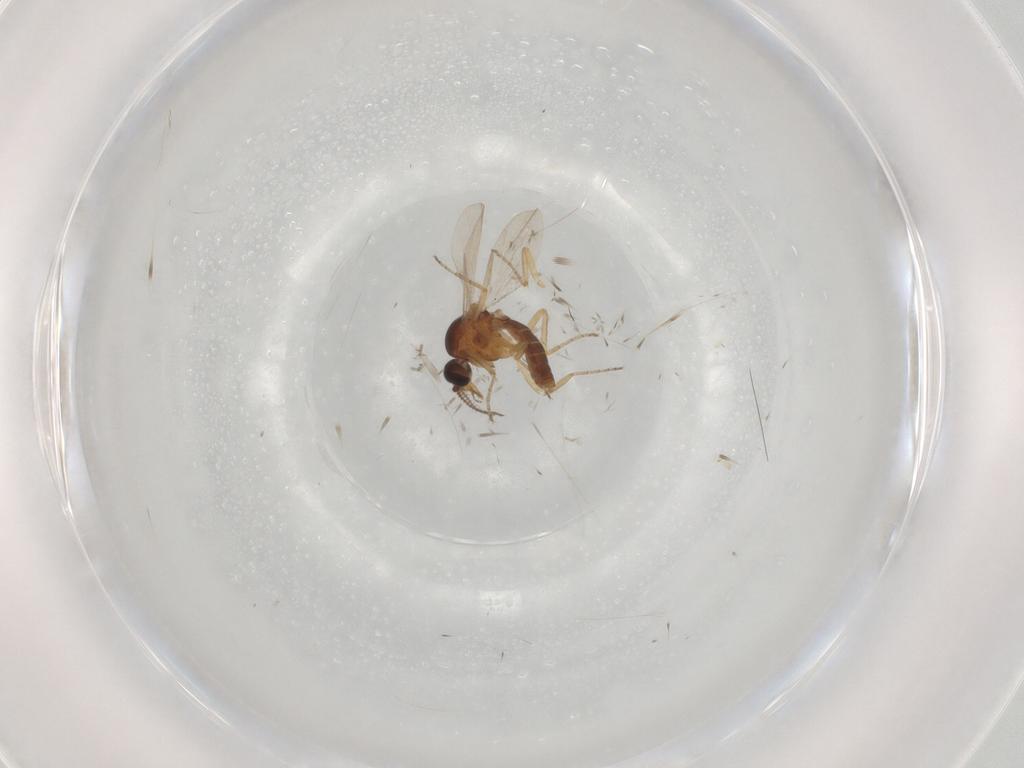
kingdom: Animalia
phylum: Arthropoda
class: Insecta
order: Diptera
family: Ceratopogonidae
